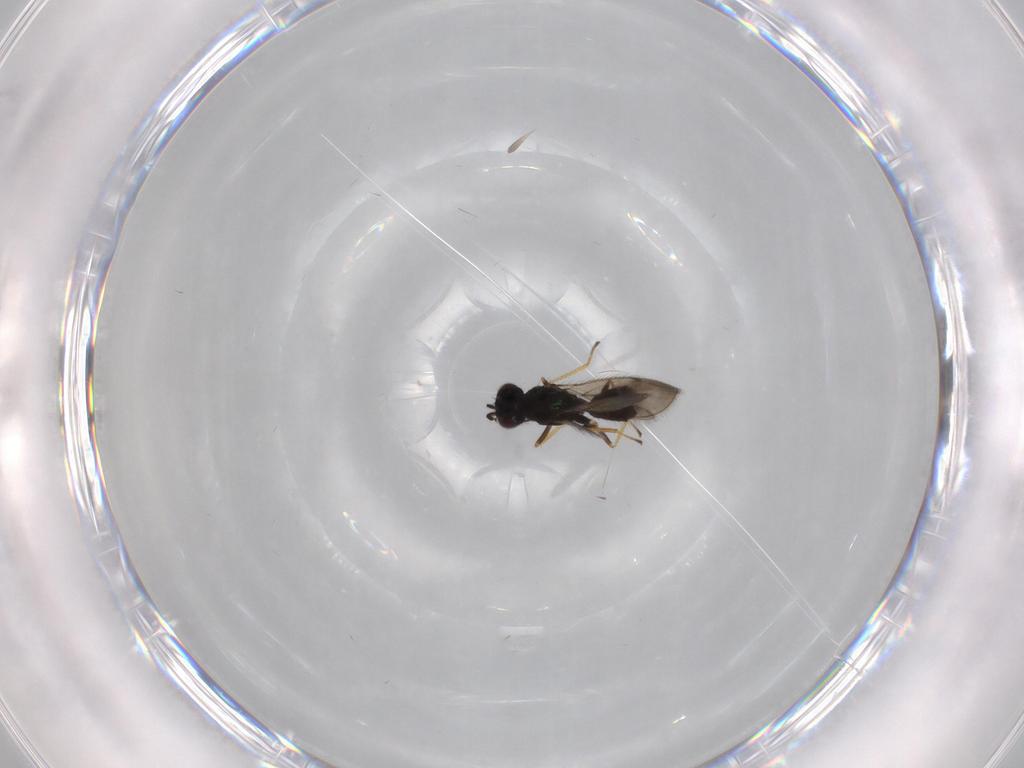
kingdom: Animalia
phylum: Arthropoda
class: Insecta
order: Hymenoptera
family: Eulophidae
